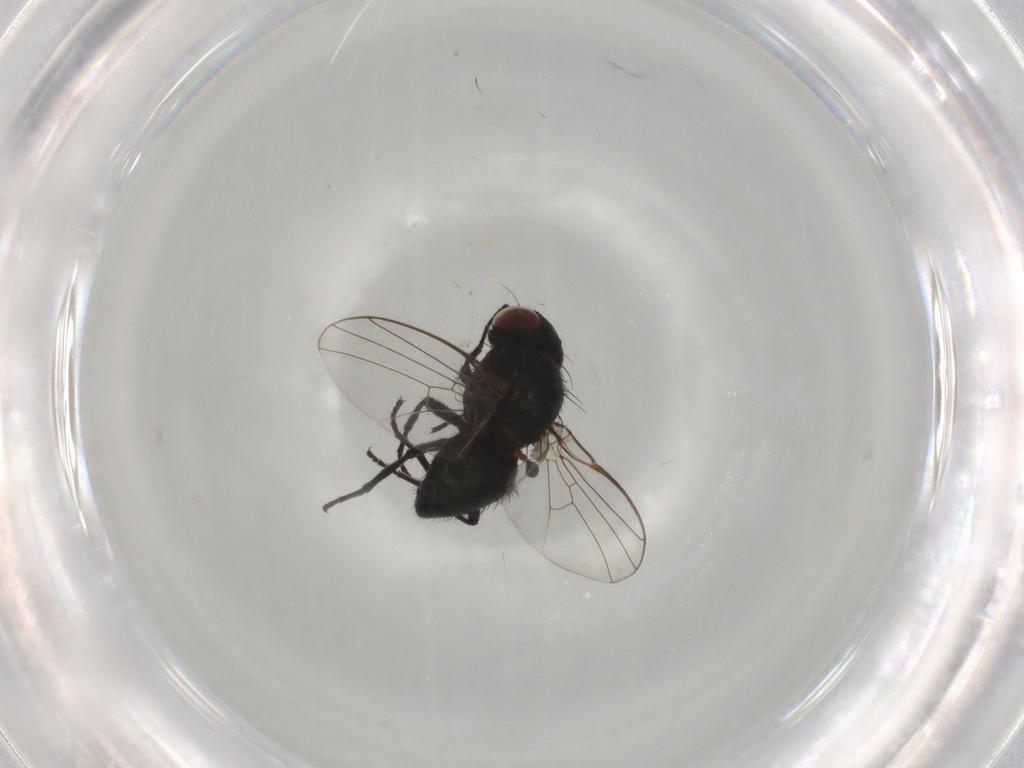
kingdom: Animalia
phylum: Arthropoda
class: Insecta
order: Diptera
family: Agromyzidae
